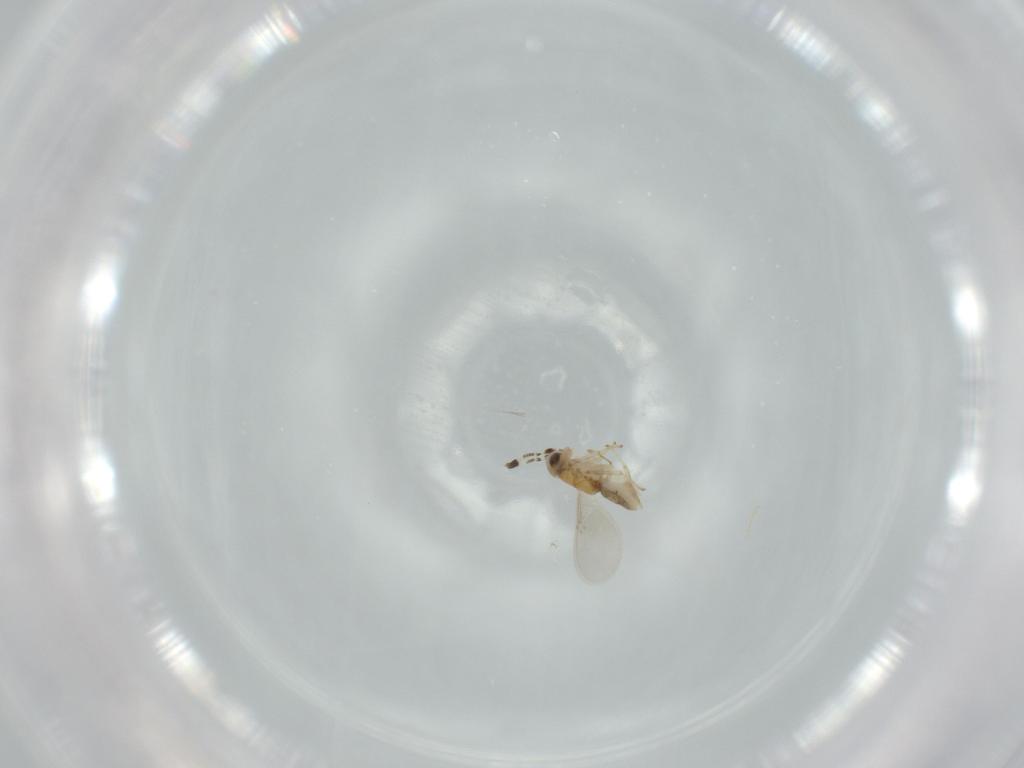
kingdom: Animalia
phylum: Arthropoda
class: Insecta
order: Hymenoptera
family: Encyrtidae
